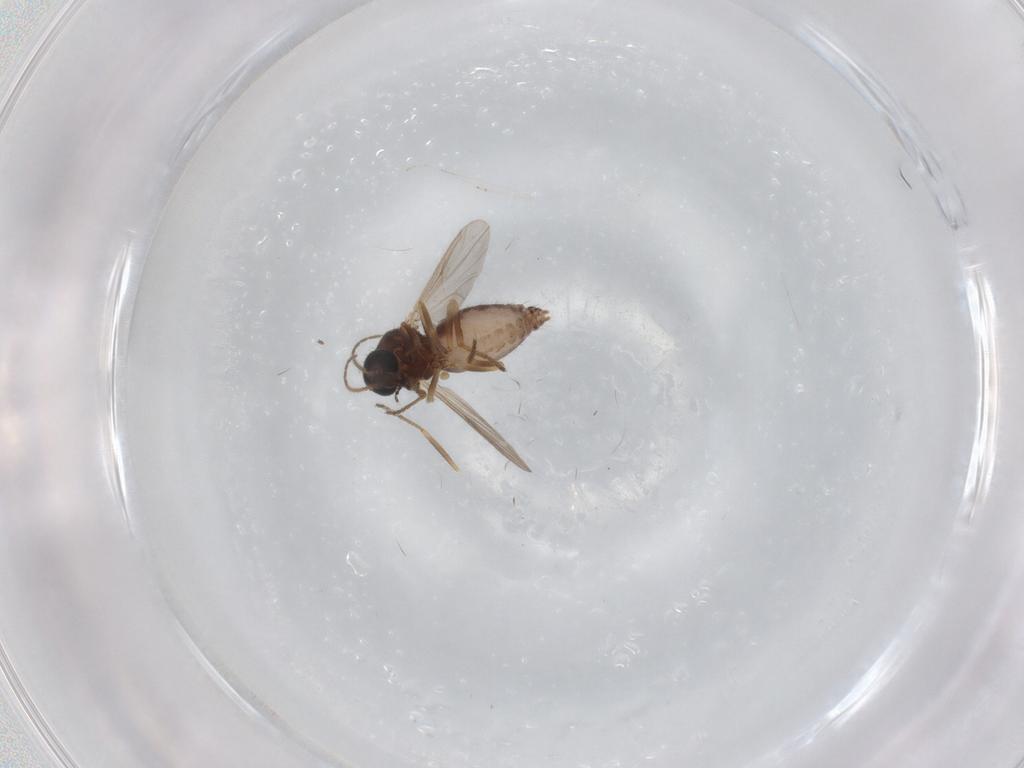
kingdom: Animalia
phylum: Arthropoda
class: Insecta
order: Diptera
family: Ceratopogonidae
